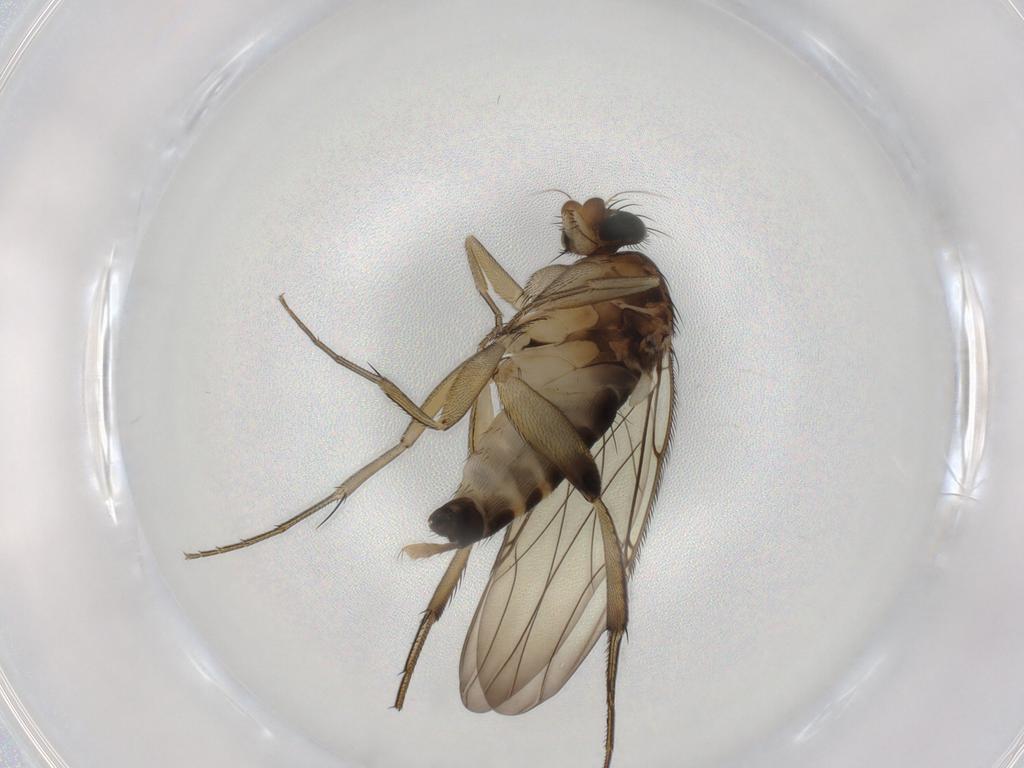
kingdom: Animalia
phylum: Arthropoda
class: Insecta
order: Diptera
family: Phoridae
